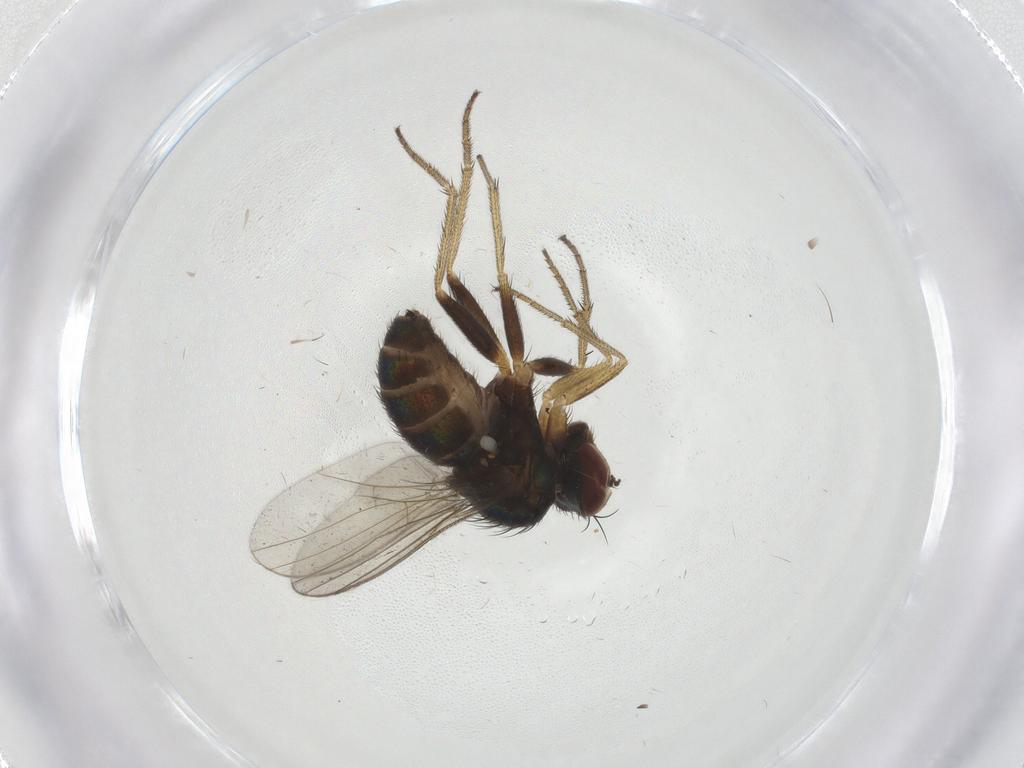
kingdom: Animalia
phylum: Arthropoda
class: Insecta
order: Diptera
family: Dolichopodidae
